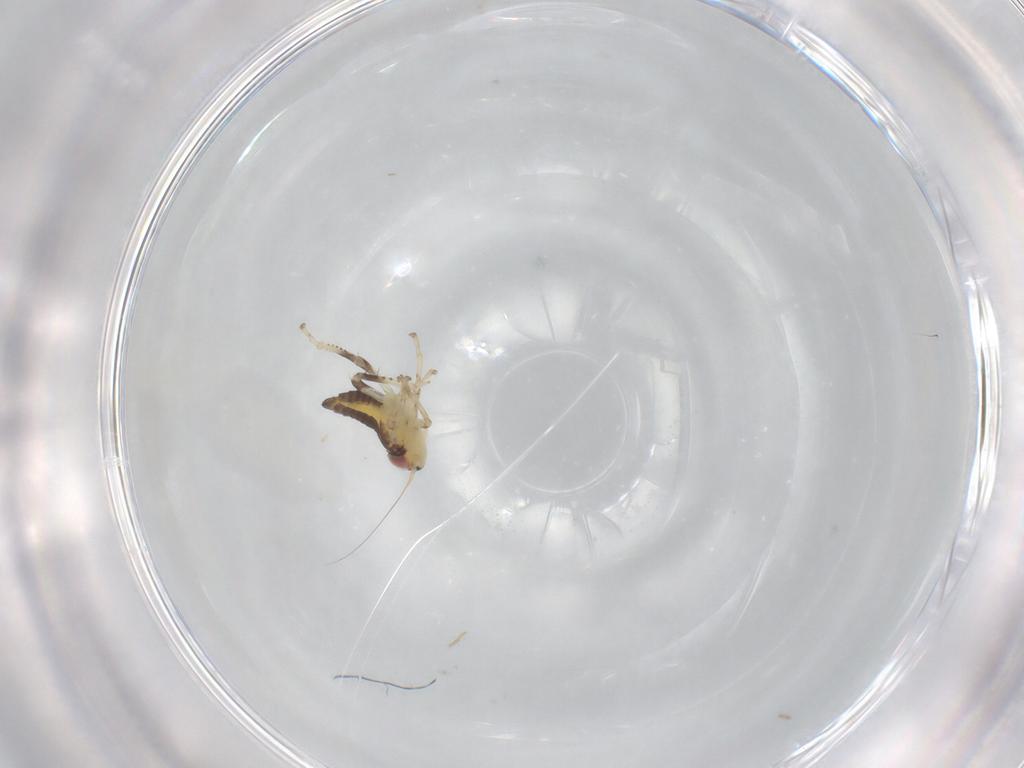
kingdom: Animalia
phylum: Arthropoda
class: Insecta
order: Hemiptera
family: Cicadellidae
